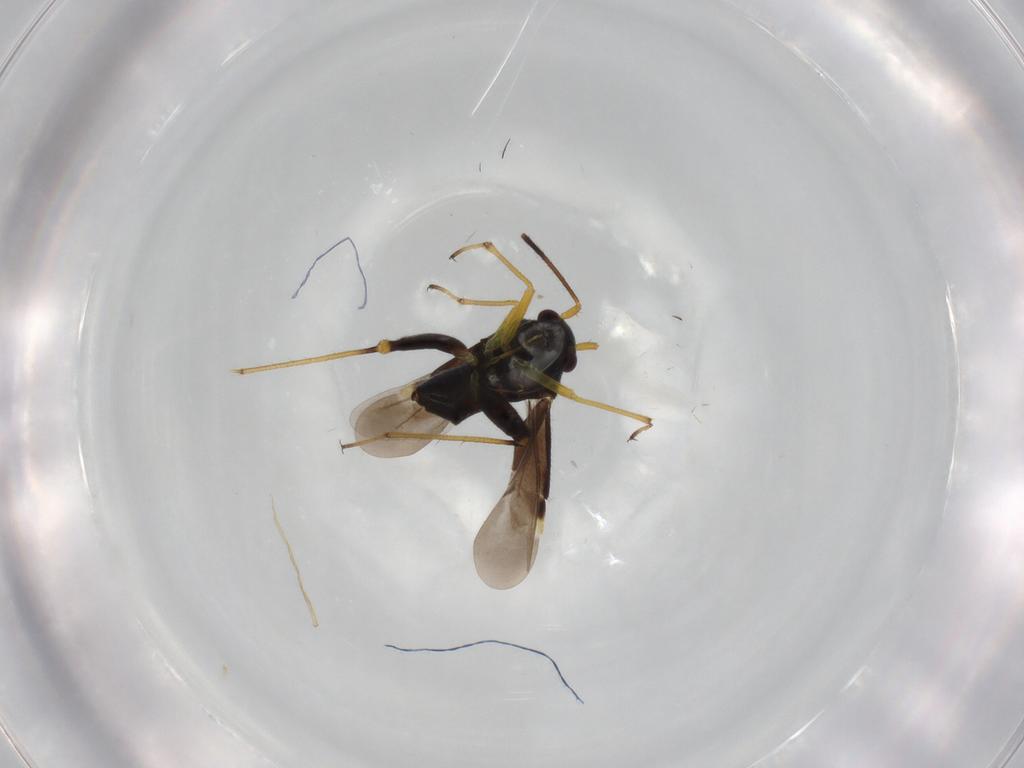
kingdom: Animalia
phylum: Arthropoda
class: Insecta
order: Hemiptera
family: Miridae
